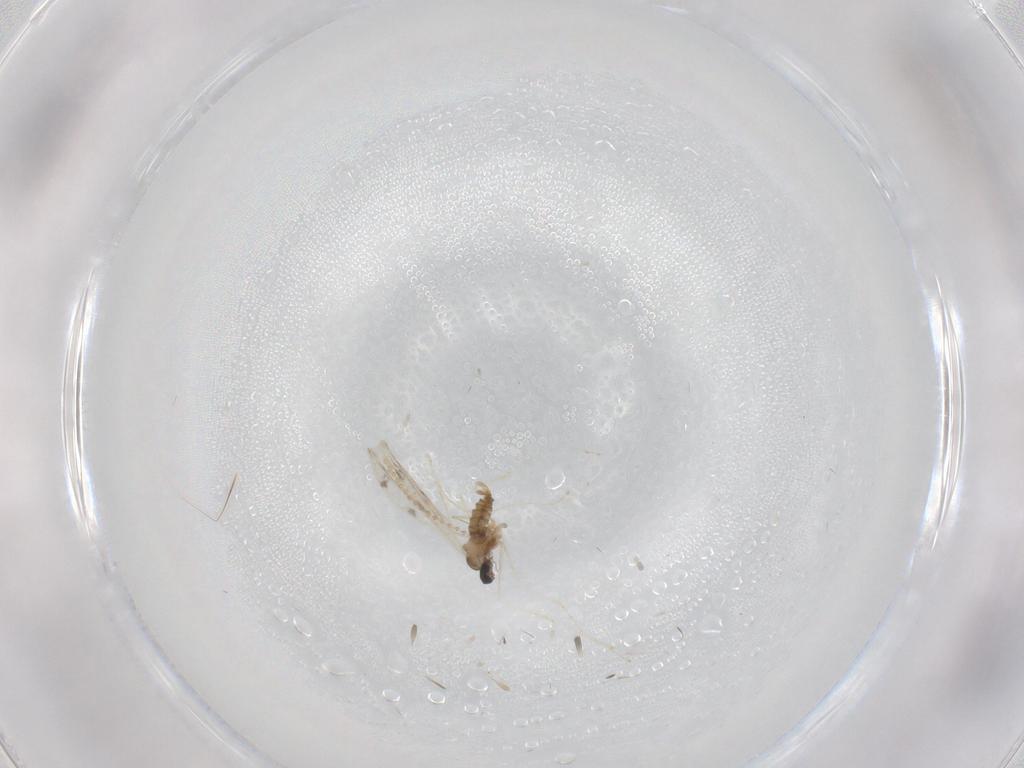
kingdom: Animalia
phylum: Arthropoda
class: Insecta
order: Diptera
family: Cecidomyiidae
